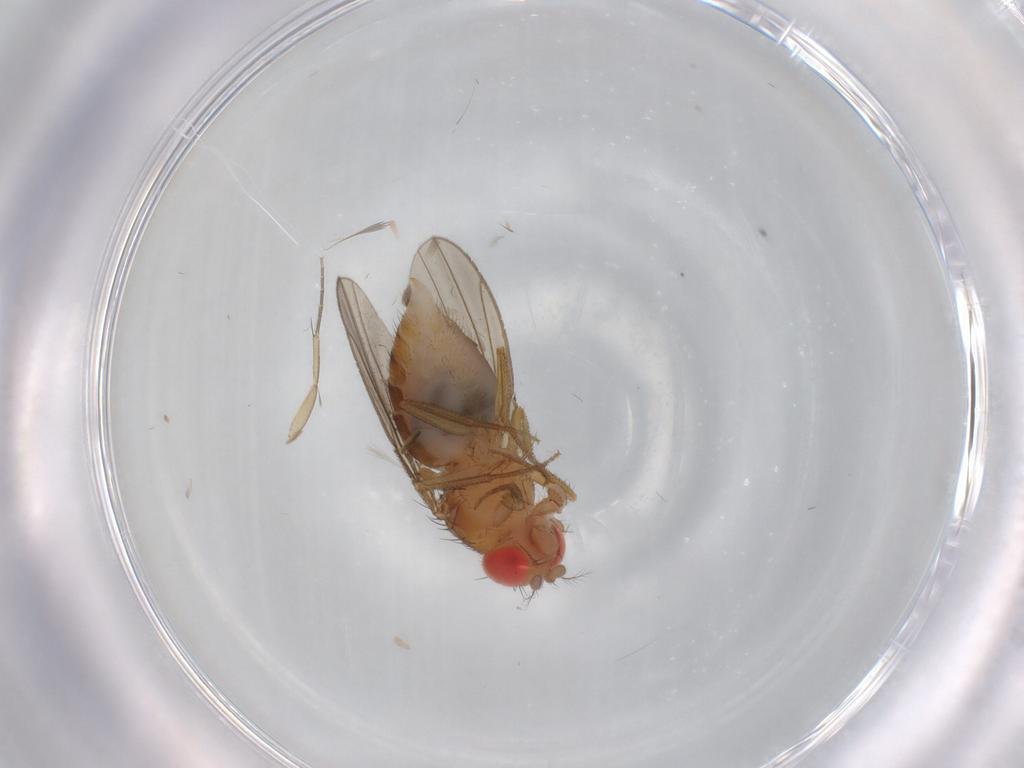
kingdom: Animalia
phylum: Arthropoda
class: Insecta
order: Diptera
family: Drosophilidae
